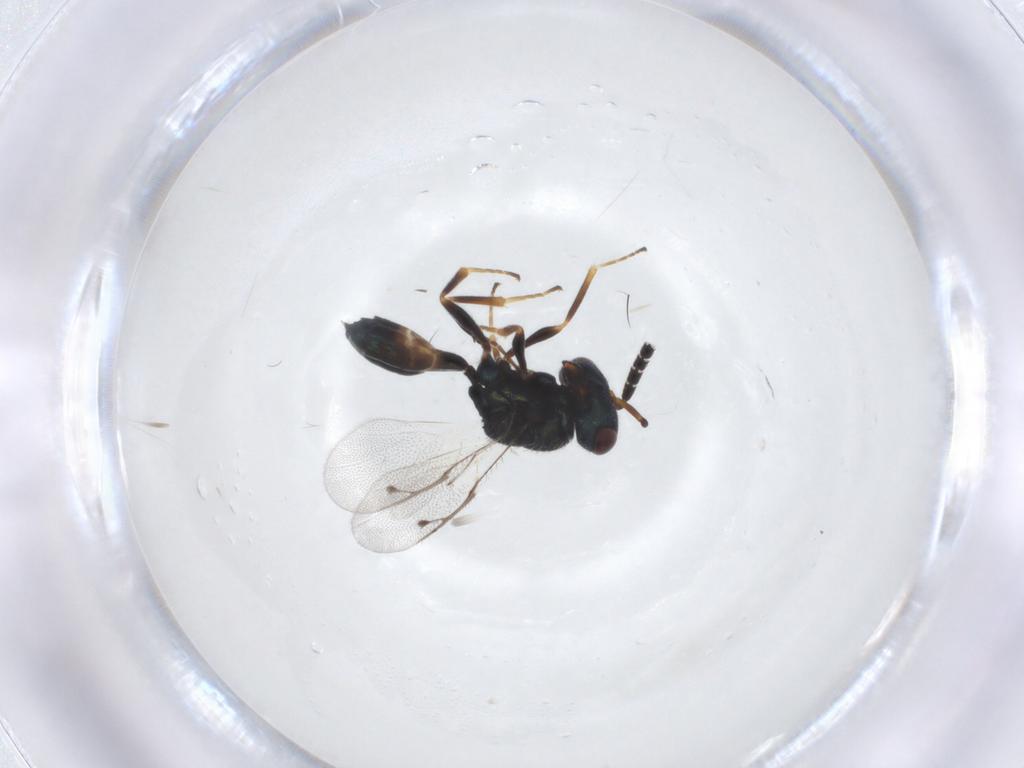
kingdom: Animalia
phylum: Arthropoda
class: Insecta
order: Hymenoptera
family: Pteromalidae
